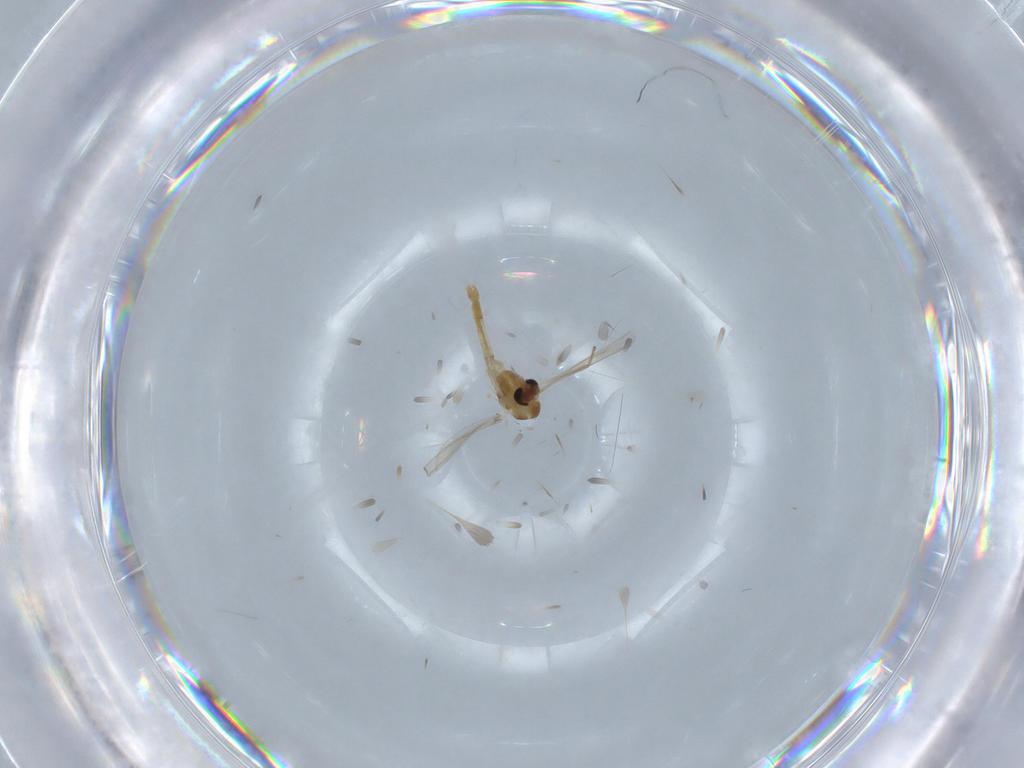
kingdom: Animalia
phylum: Arthropoda
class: Insecta
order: Diptera
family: Chironomidae
